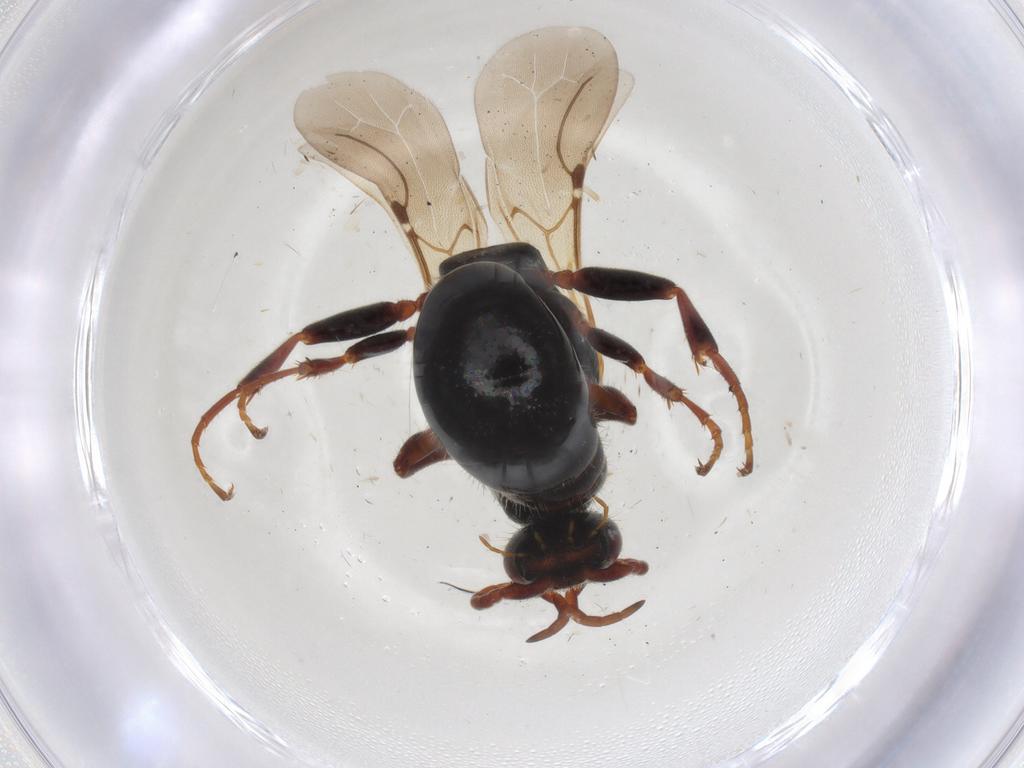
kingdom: Animalia
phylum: Arthropoda
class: Insecta
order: Hymenoptera
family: Bethylidae
